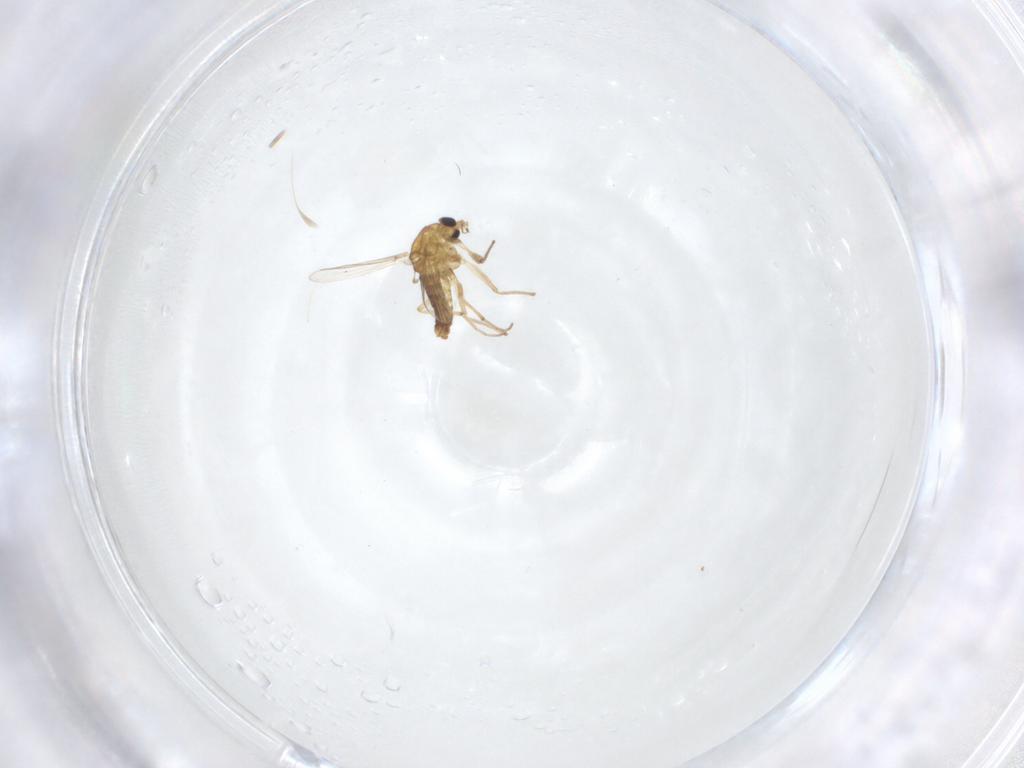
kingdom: Animalia
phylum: Arthropoda
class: Insecta
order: Diptera
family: Chironomidae
